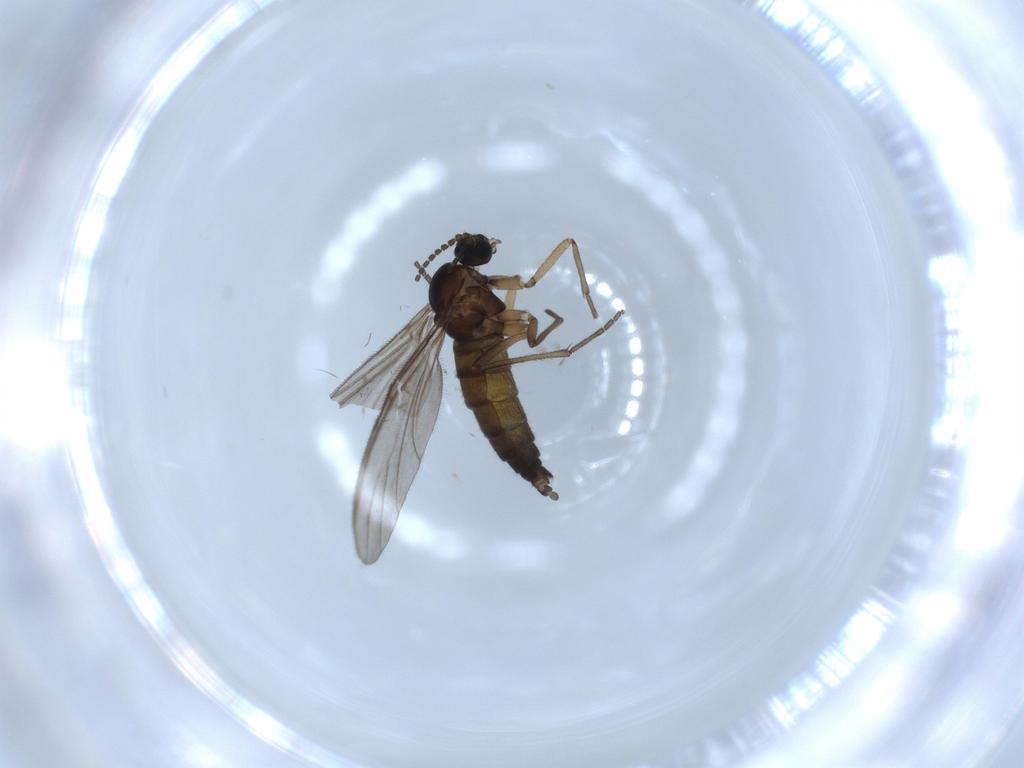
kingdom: Animalia
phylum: Arthropoda
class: Insecta
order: Diptera
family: Sciaridae
